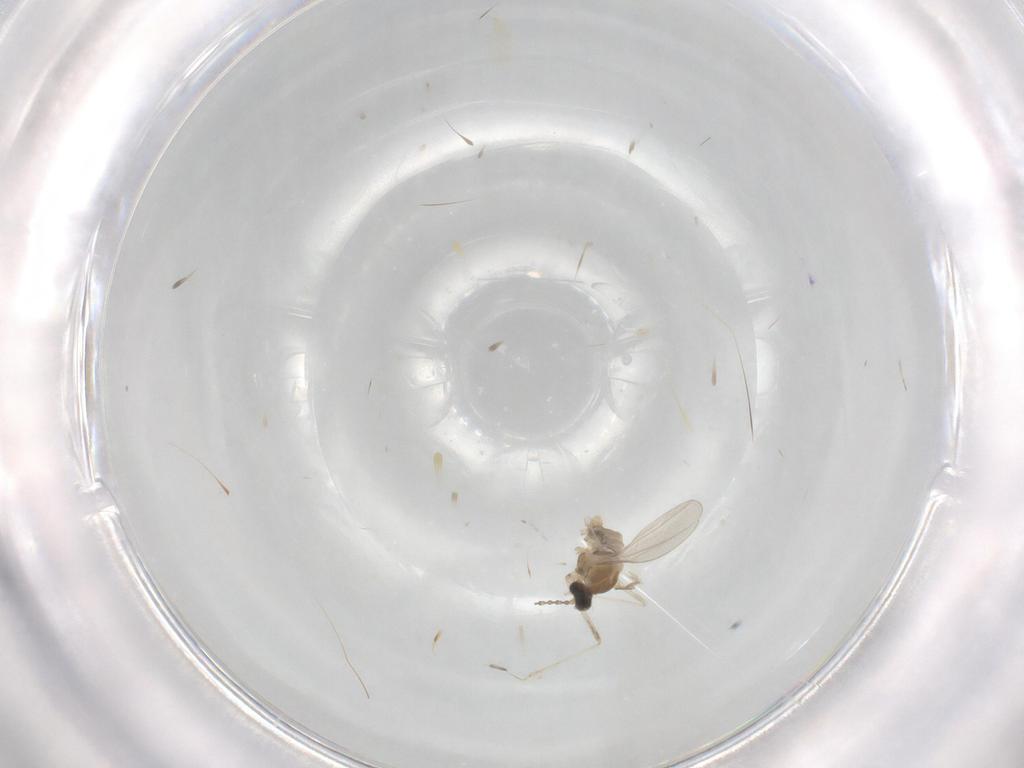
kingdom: Animalia
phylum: Arthropoda
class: Insecta
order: Diptera
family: Cecidomyiidae
